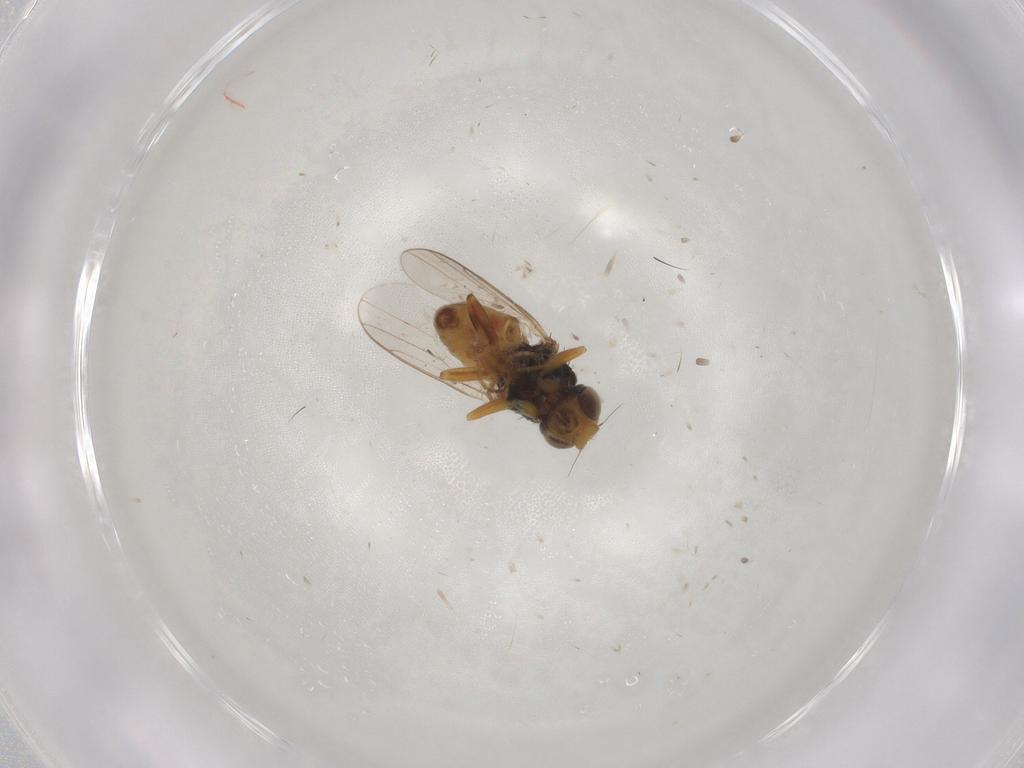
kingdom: Animalia
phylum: Arthropoda
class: Insecta
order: Diptera
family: Chloropidae
